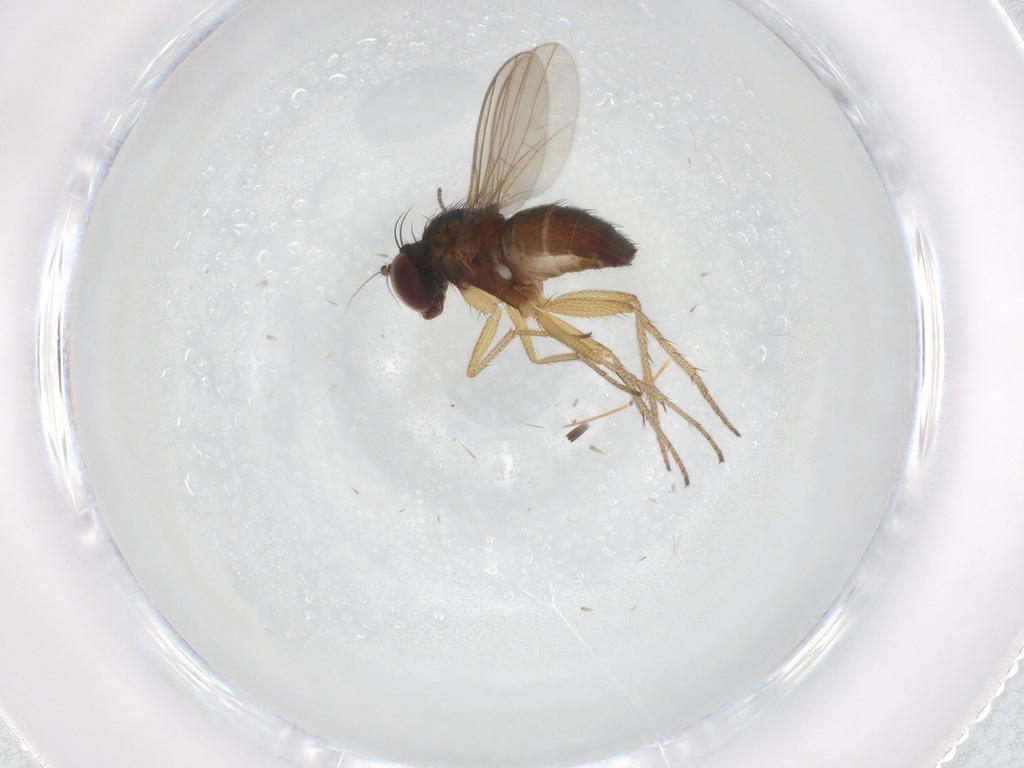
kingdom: Animalia
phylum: Arthropoda
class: Insecta
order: Diptera
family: Dolichopodidae
